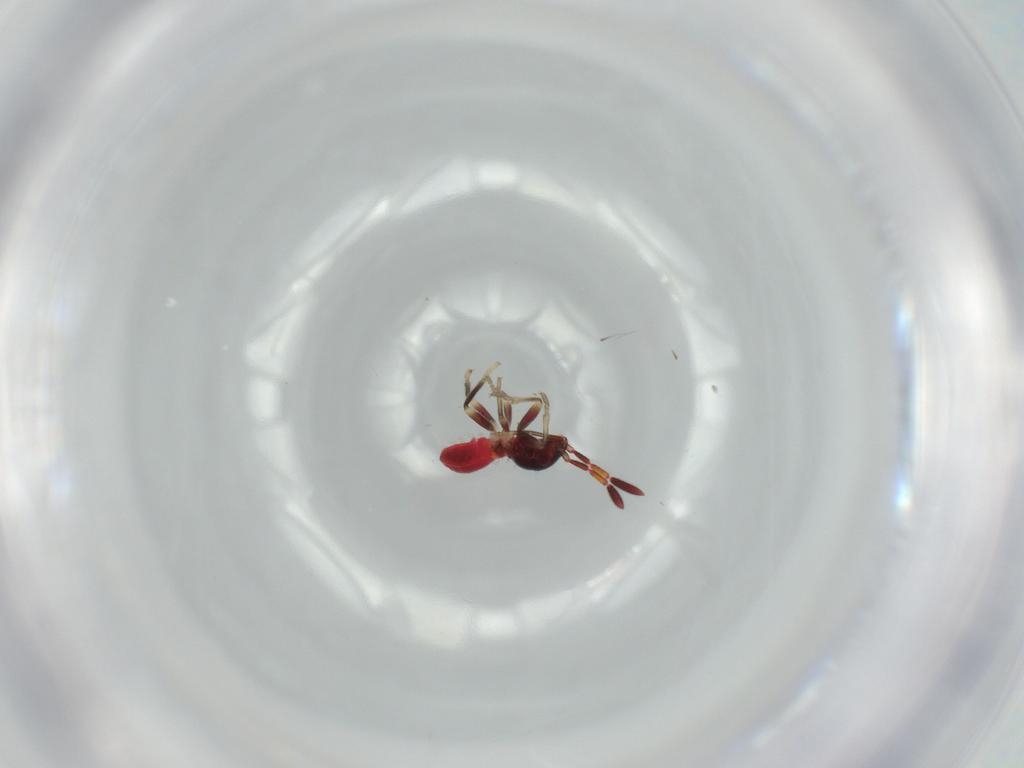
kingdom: Animalia
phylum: Arthropoda
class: Insecta
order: Hemiptera
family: Rhyparochromidae
